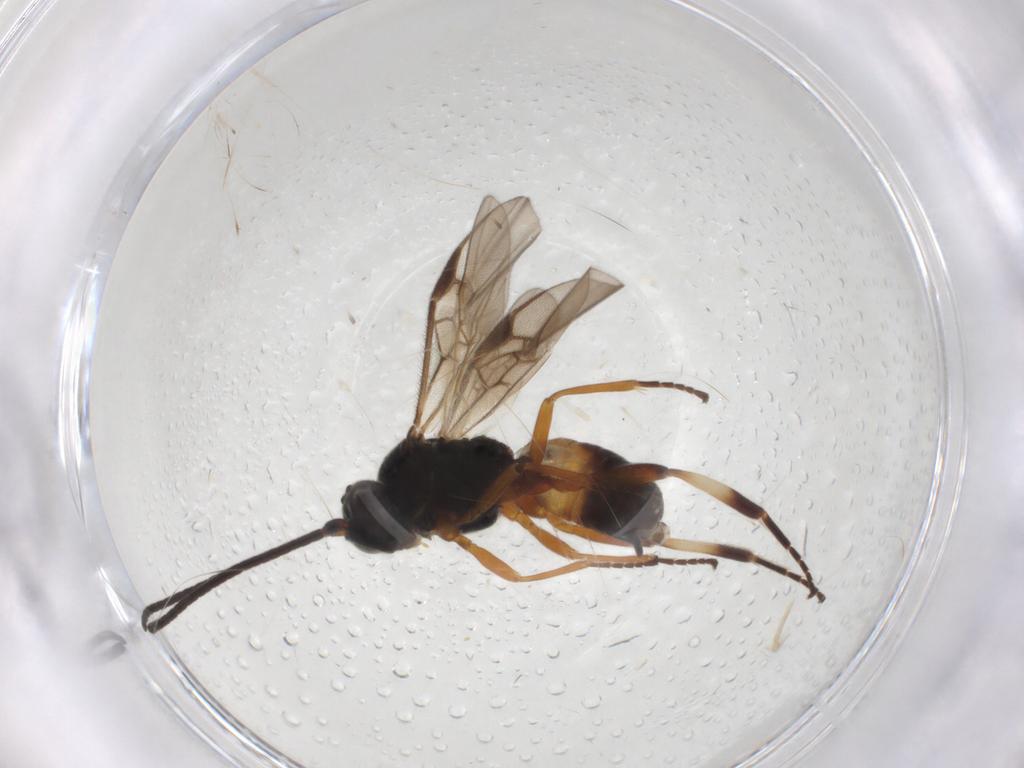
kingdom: Animalia
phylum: Arthropoda
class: Insecta
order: Hymenoptera
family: Braconidae
